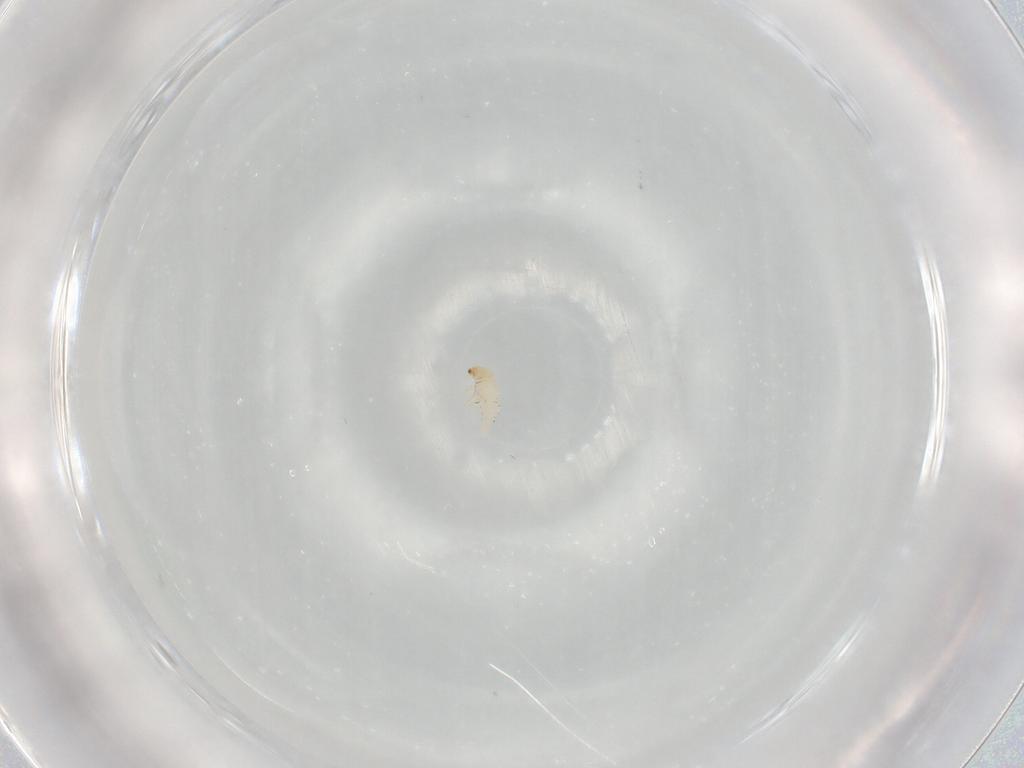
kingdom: Animalia
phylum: Arthropoda
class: Insecta
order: Coleoptera
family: Chrysomelidae
